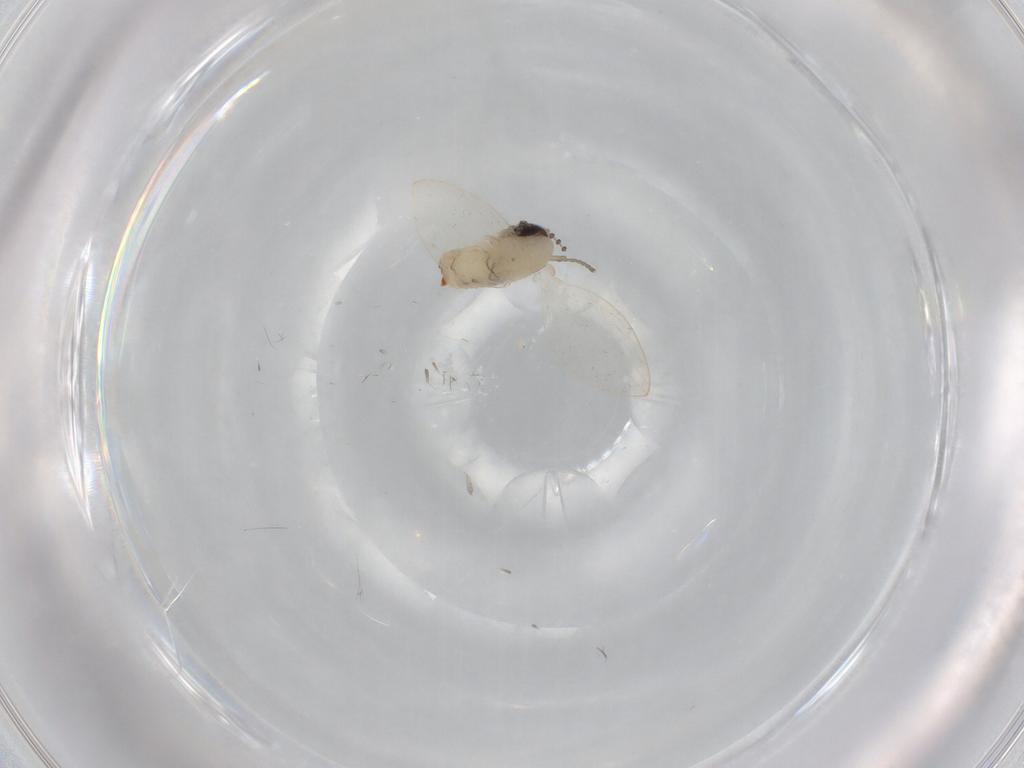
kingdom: Animalia
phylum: Arthropoda
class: Insecta
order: Diptera
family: Psychodidae
